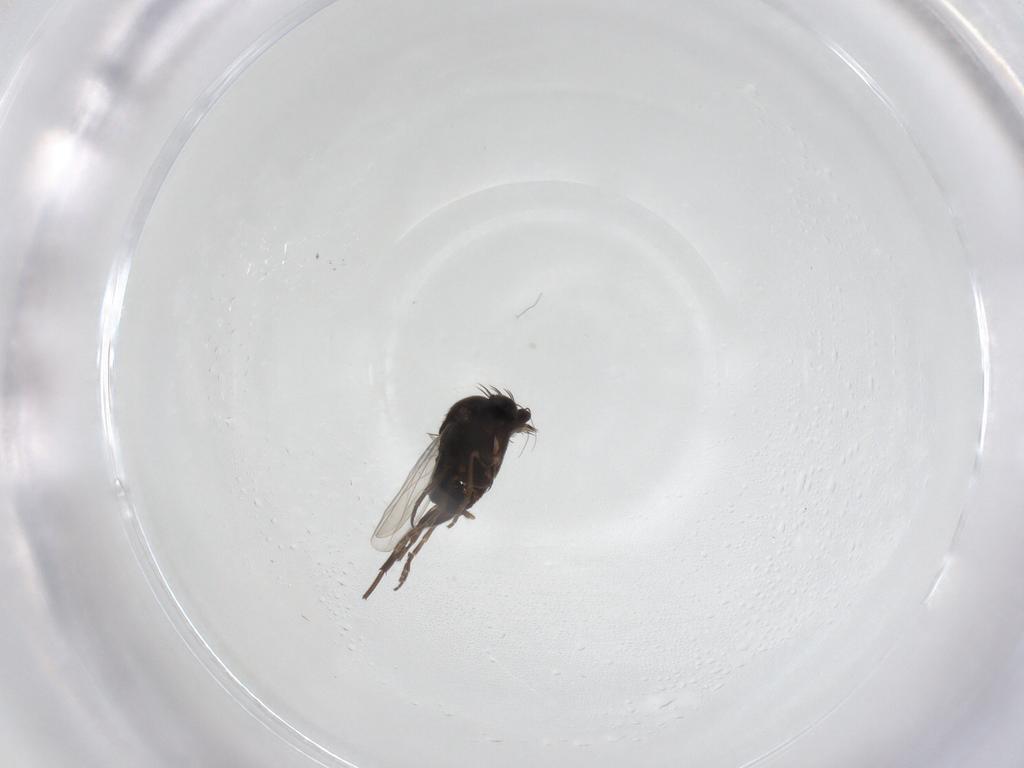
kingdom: Animalia
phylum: Arthropoda
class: Insecta
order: Diptera
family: Phoridae
